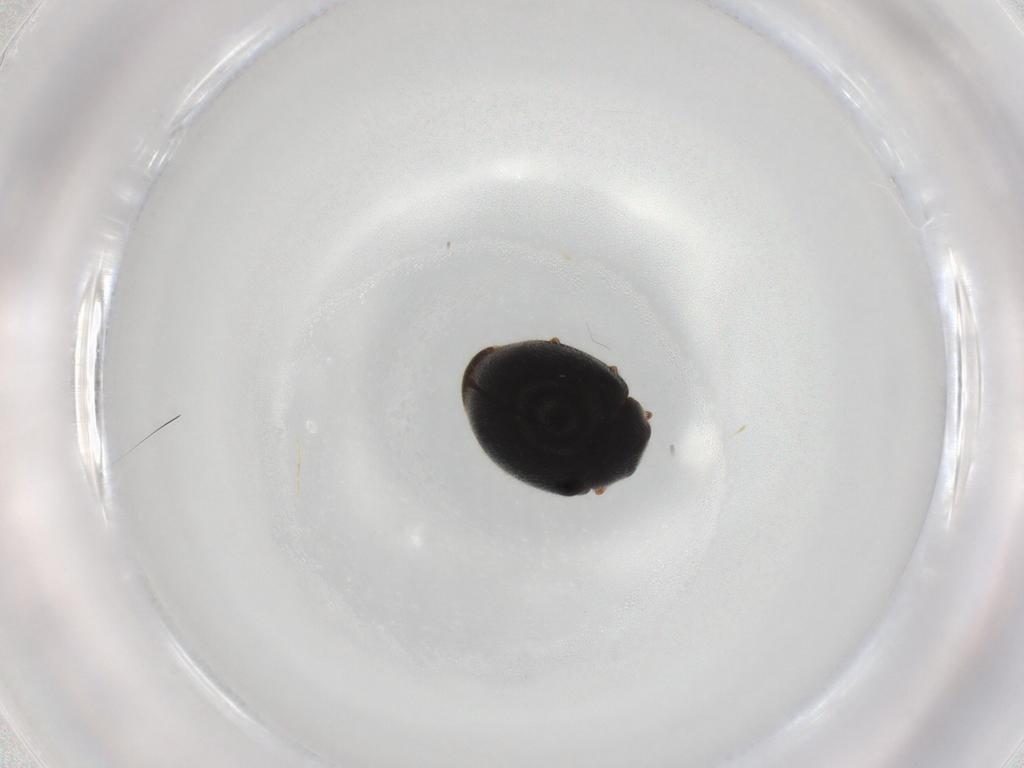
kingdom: Animalia
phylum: Arthropoda
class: Insecta
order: Coleoptera
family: Coccinellidae
